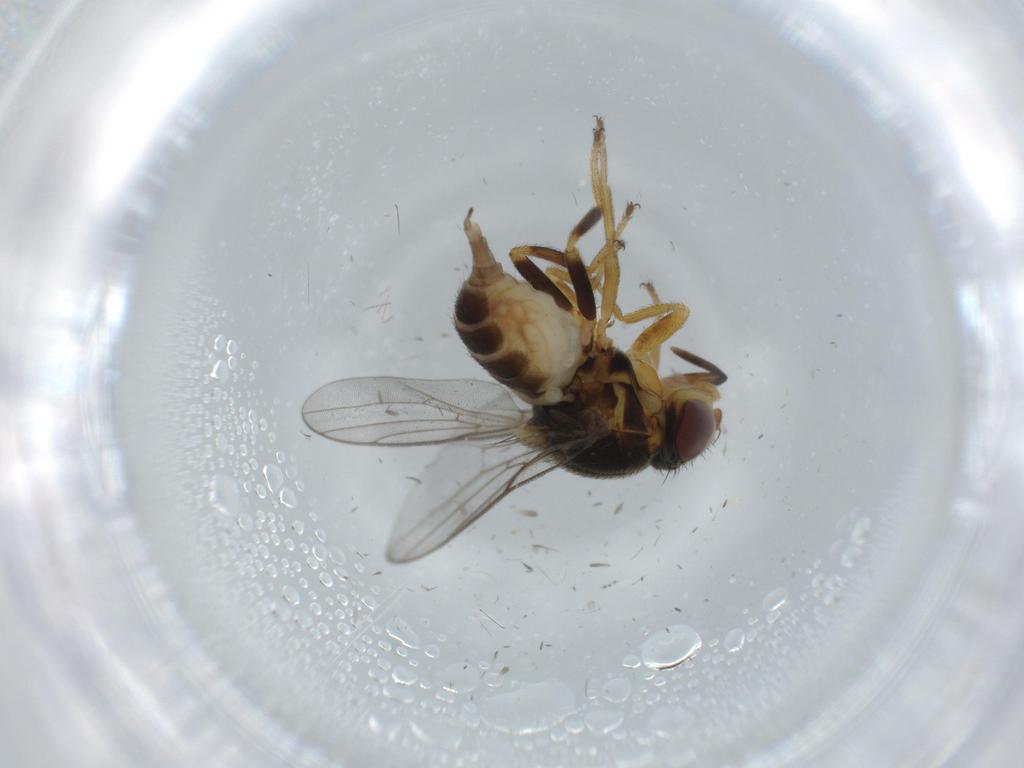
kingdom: Animalia
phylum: Arthropoda
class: Insecta
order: Diptera
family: Chloropidae
